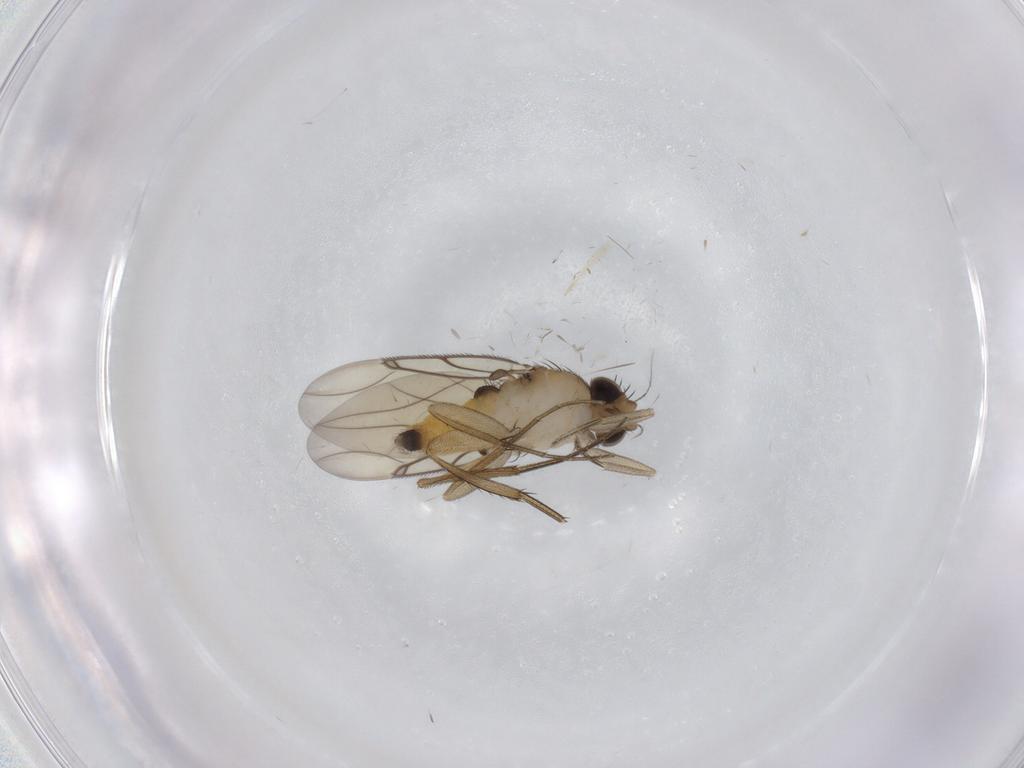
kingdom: Animalia
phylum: Arthropoda
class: Insecta
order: Diptera
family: Phoridae
